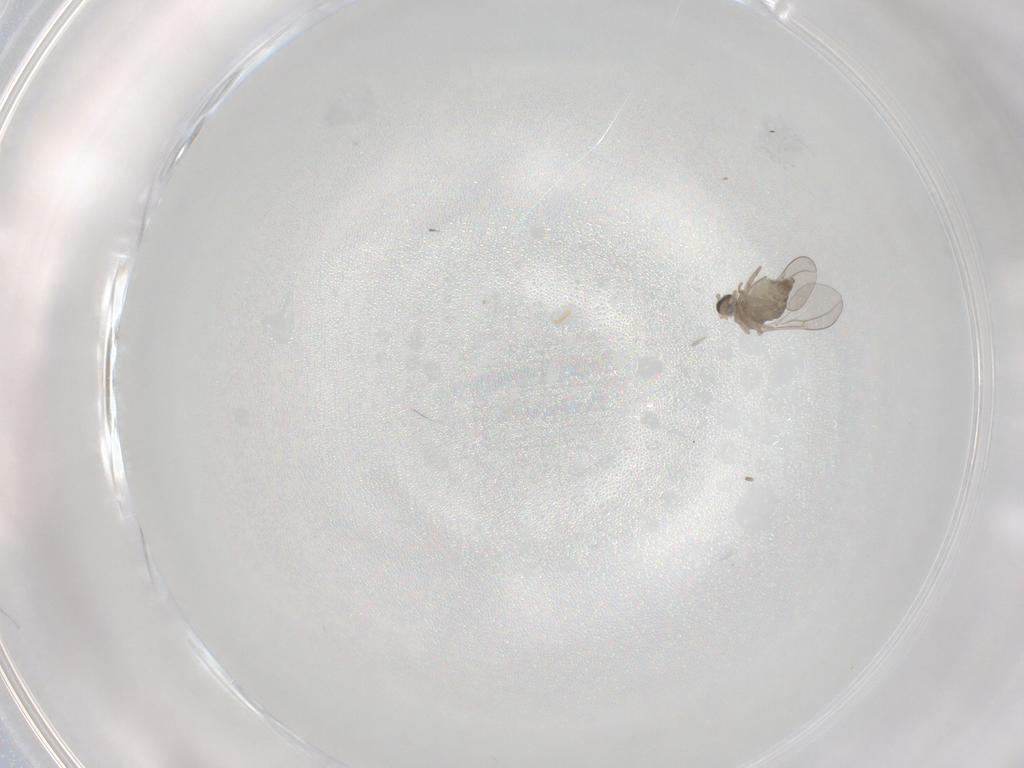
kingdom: Animalia
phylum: Arthropoda
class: Insecta
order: Diptera
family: Cecidomyiidae
